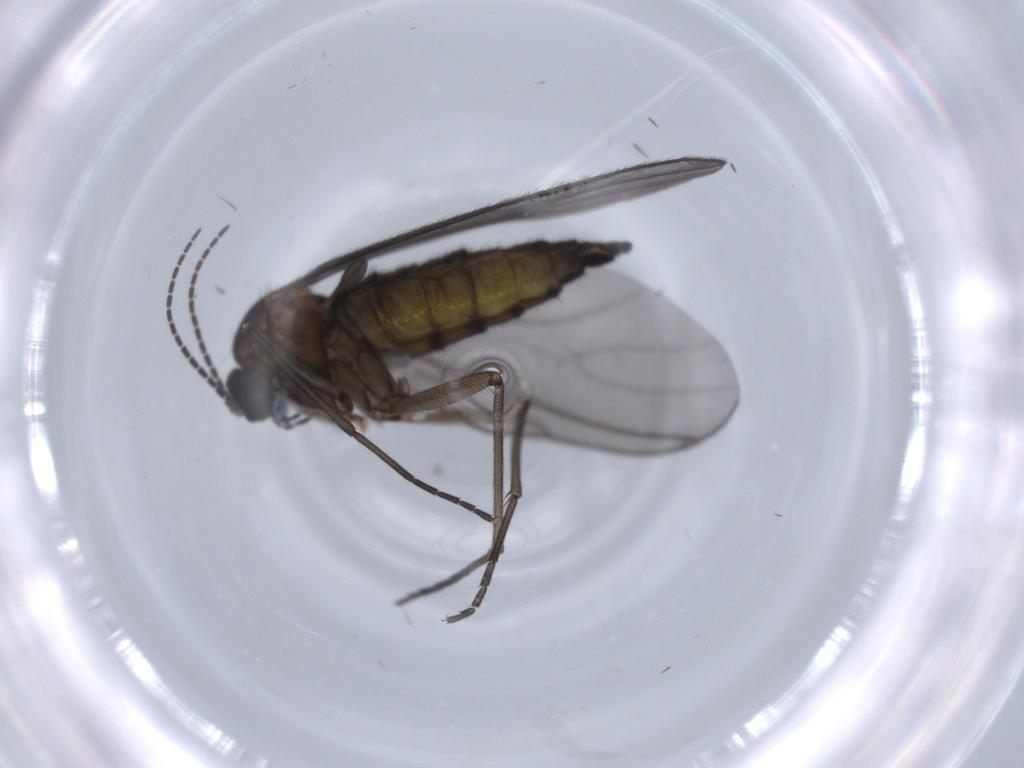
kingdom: Animalia
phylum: Arthropoda
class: Insecta
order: Diptera
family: Sciaridae
